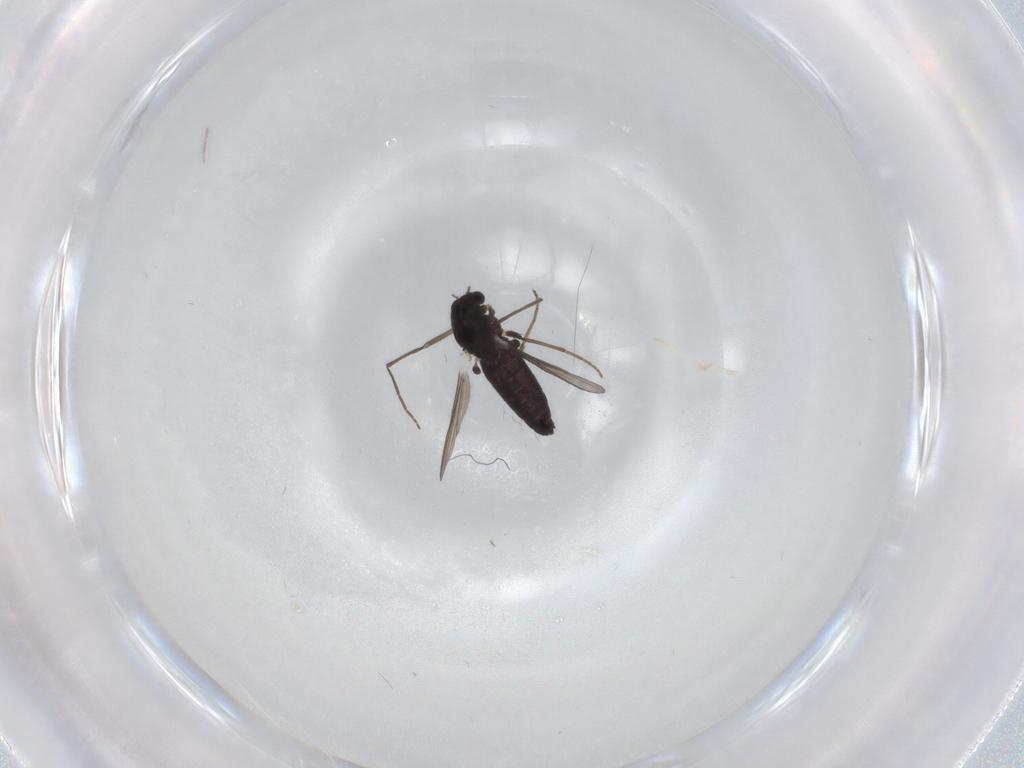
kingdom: Animalia
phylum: Arthropoda
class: Insecta
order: Diptera
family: Chironomidae
